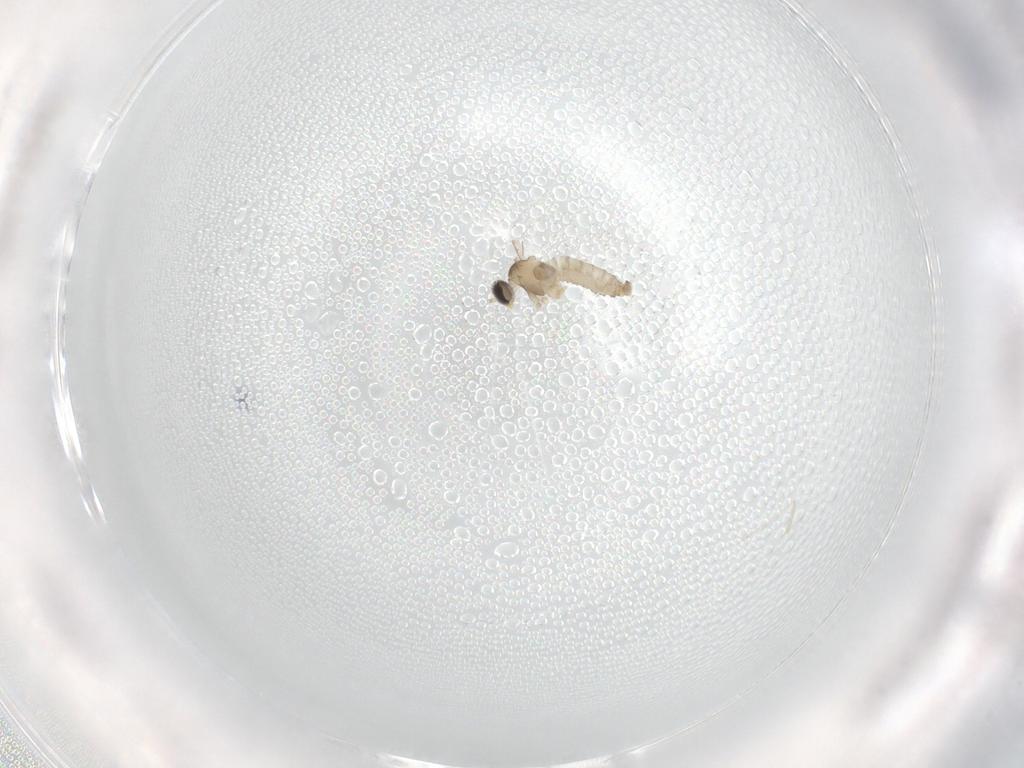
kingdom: Animalia
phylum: Arthropoda
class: Insecta
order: Diptera
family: Cecidomyiidae
